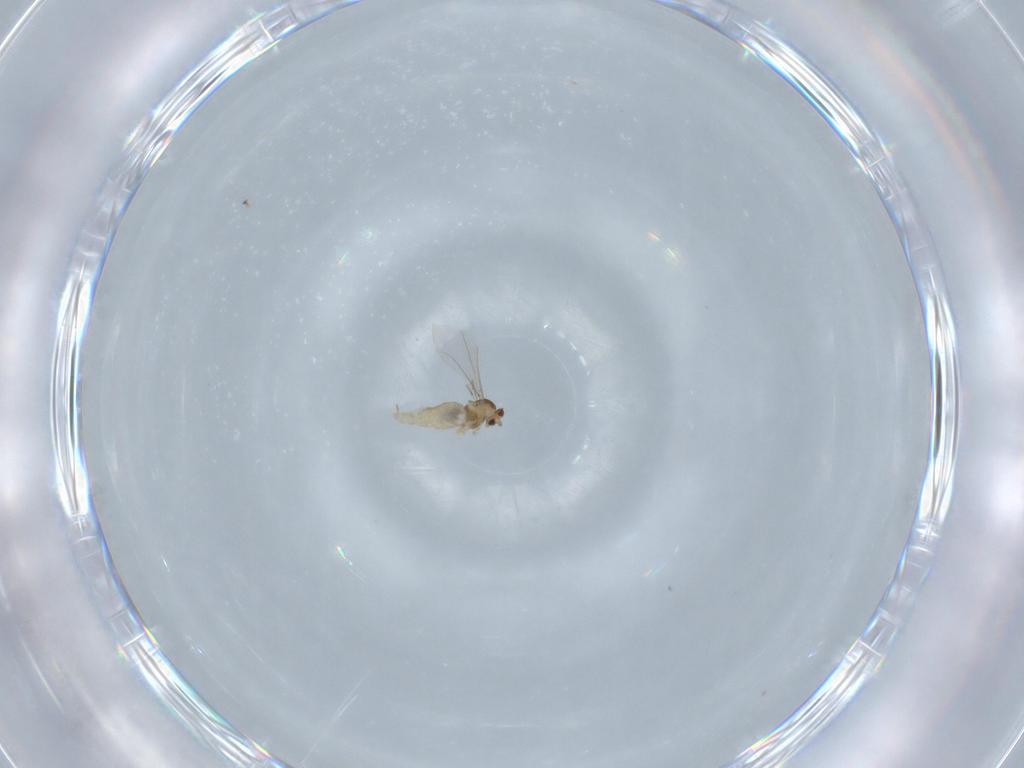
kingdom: Animalia
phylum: Arthropoda
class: Insecta
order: Diptera
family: Cecidomyiidae
